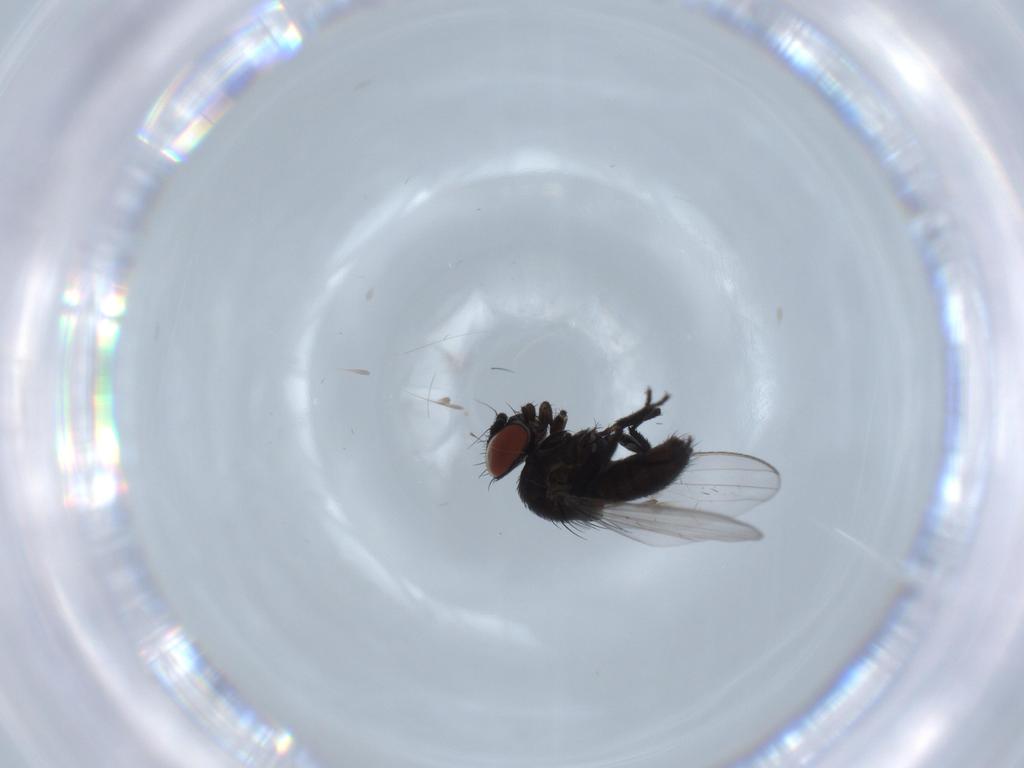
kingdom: Animalia
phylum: Arthropoda
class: Insecta
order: Diptera
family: Milichiidae
